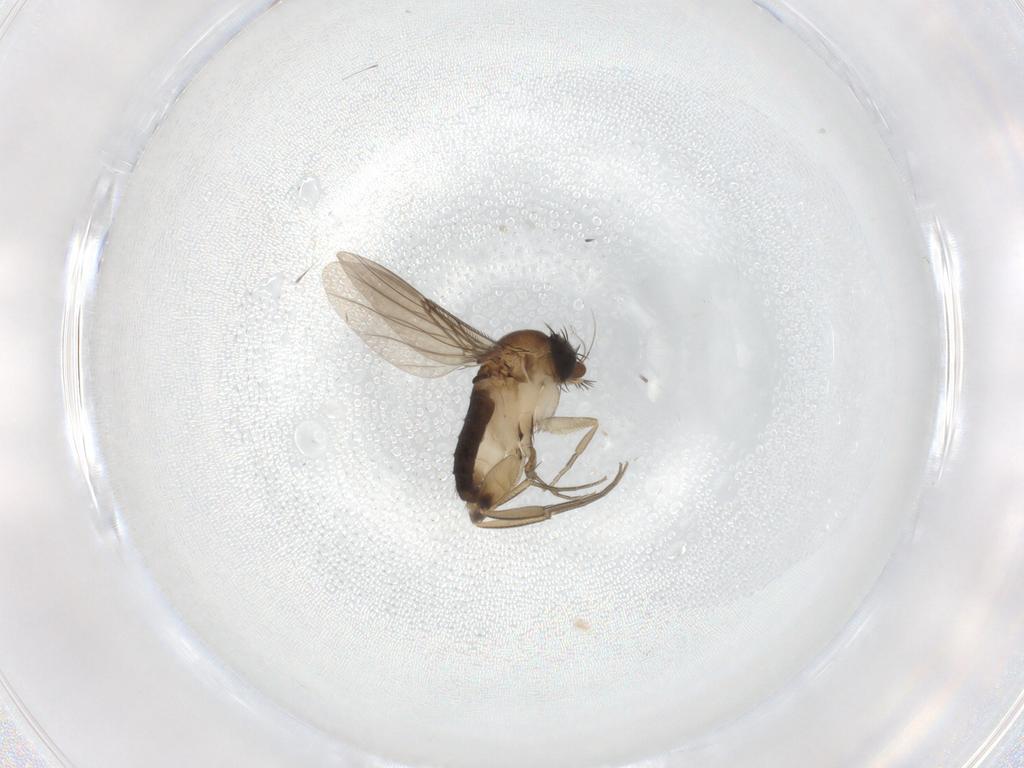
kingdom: Animalia
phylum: Arthropoda
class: Insecta
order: Diptera
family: Phoridae
